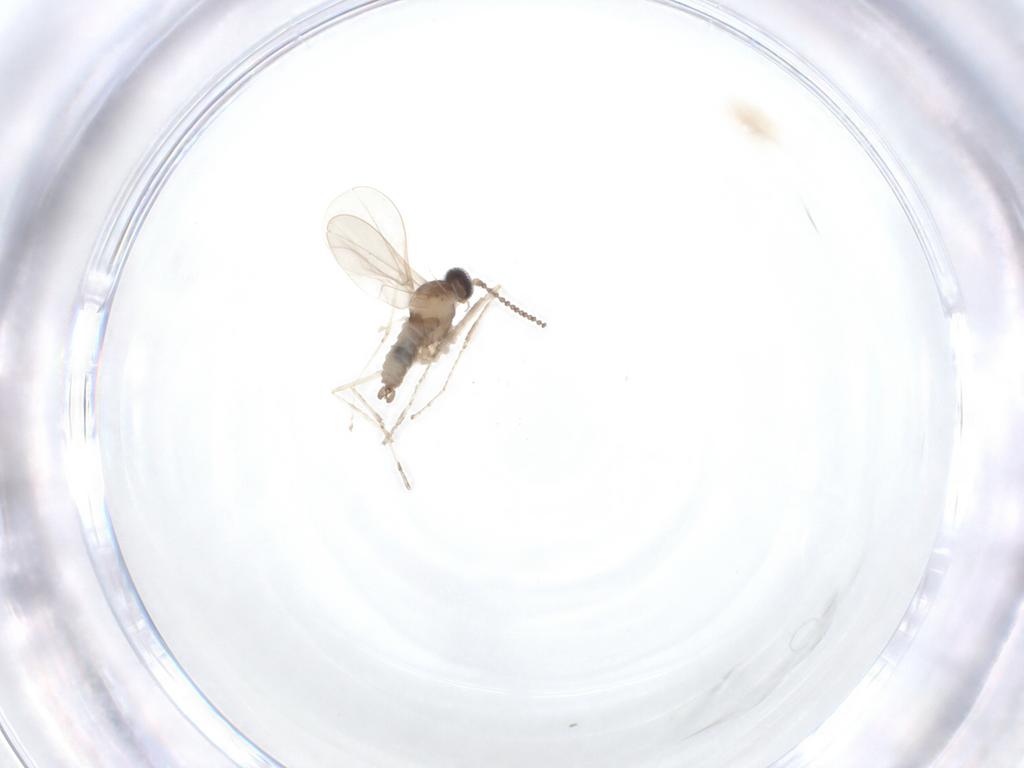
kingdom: Animalia
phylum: Arthropoda
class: Insecta
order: Diptera
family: Cecidomyiidae
